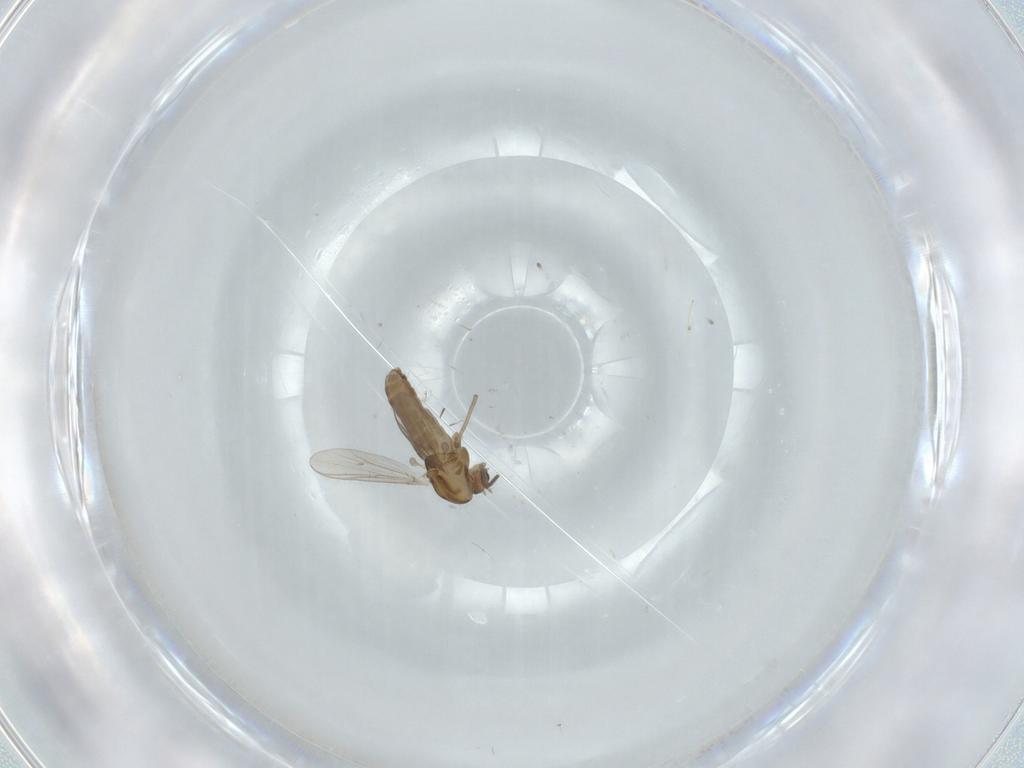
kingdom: Animalia
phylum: Arthropoda
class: Insecta
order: Diptera
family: Chironomidae
